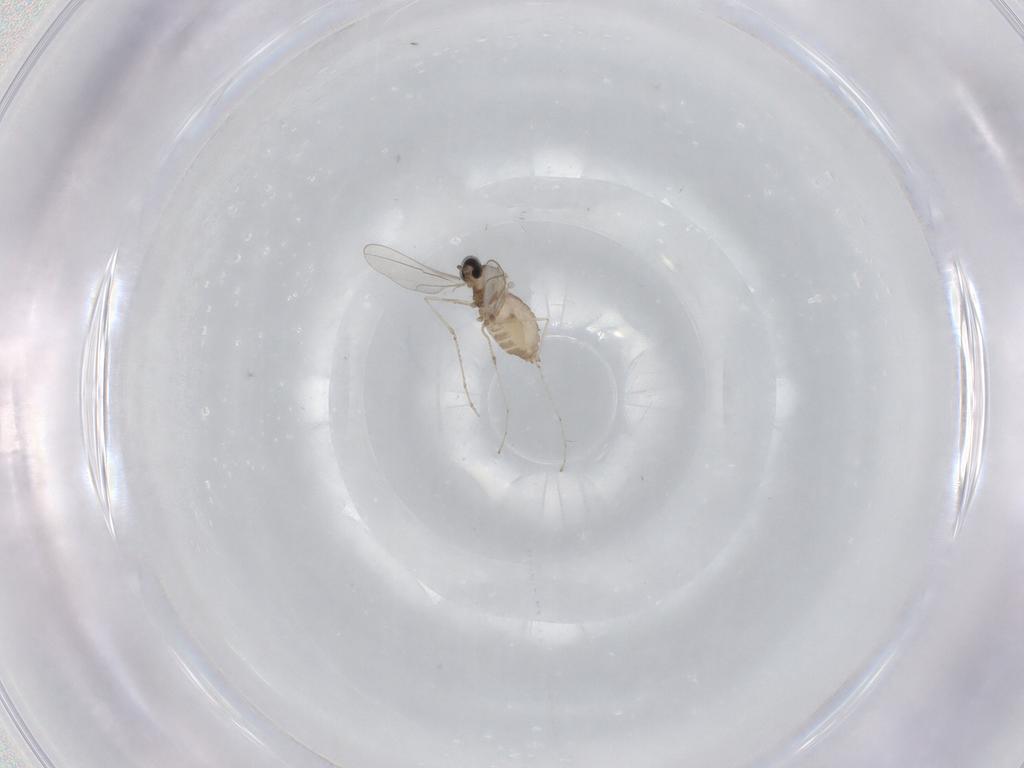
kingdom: Animalia
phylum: Arthropoda
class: Insecta
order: Diptera
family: Cecidomyiidae
